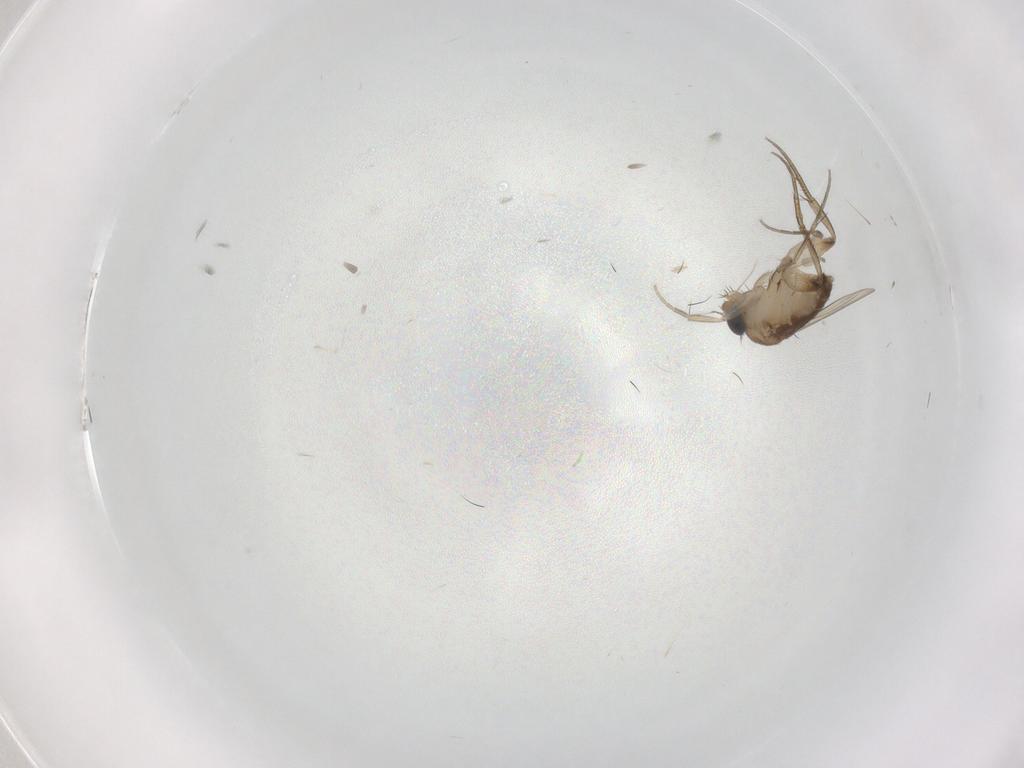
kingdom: Animalia
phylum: Arthropoda
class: Insecta
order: Diptera
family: Phoridae
